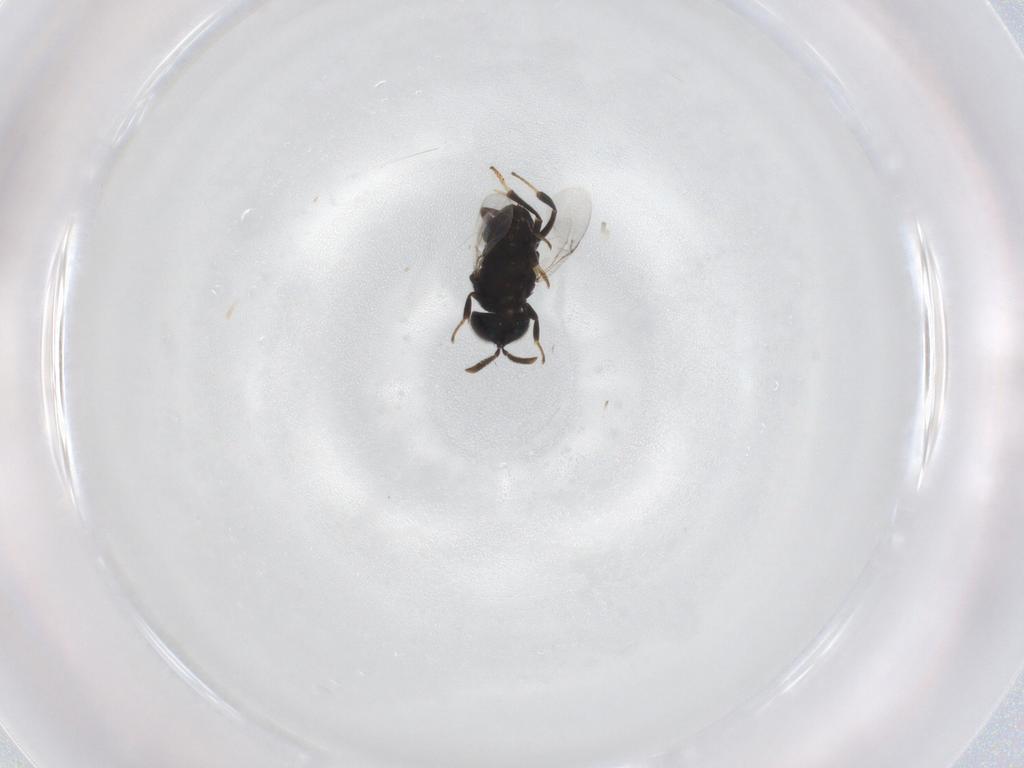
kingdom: Animalia
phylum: Arthropoda
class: Insecta
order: Hymenoptera
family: Encyrtidae
